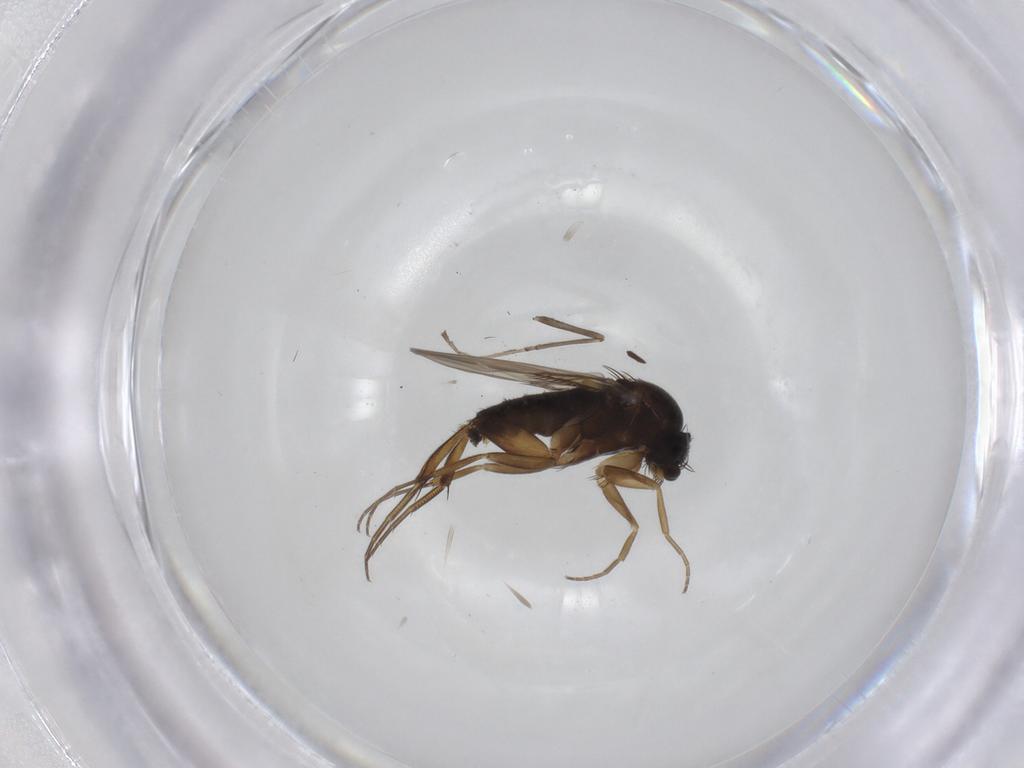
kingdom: Animalia
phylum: Arthropoda
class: Insecta
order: Diptera
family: Phoridae
